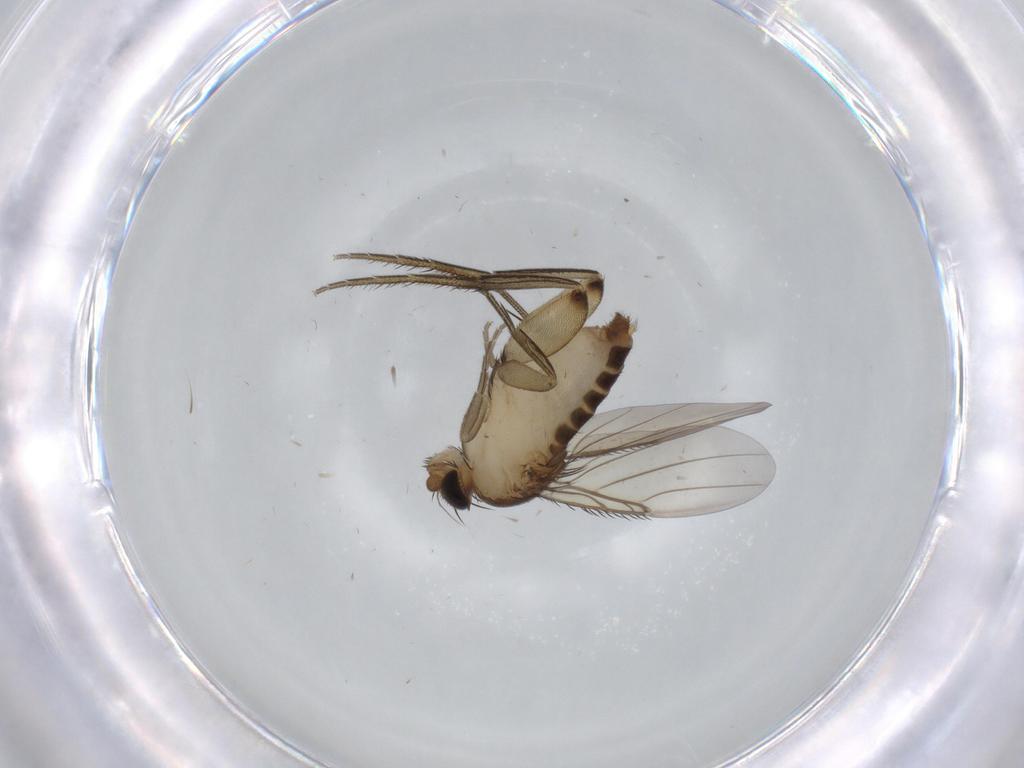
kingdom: Animalia
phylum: Arthropoda
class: Insecta
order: Diptera
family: Phoridae
